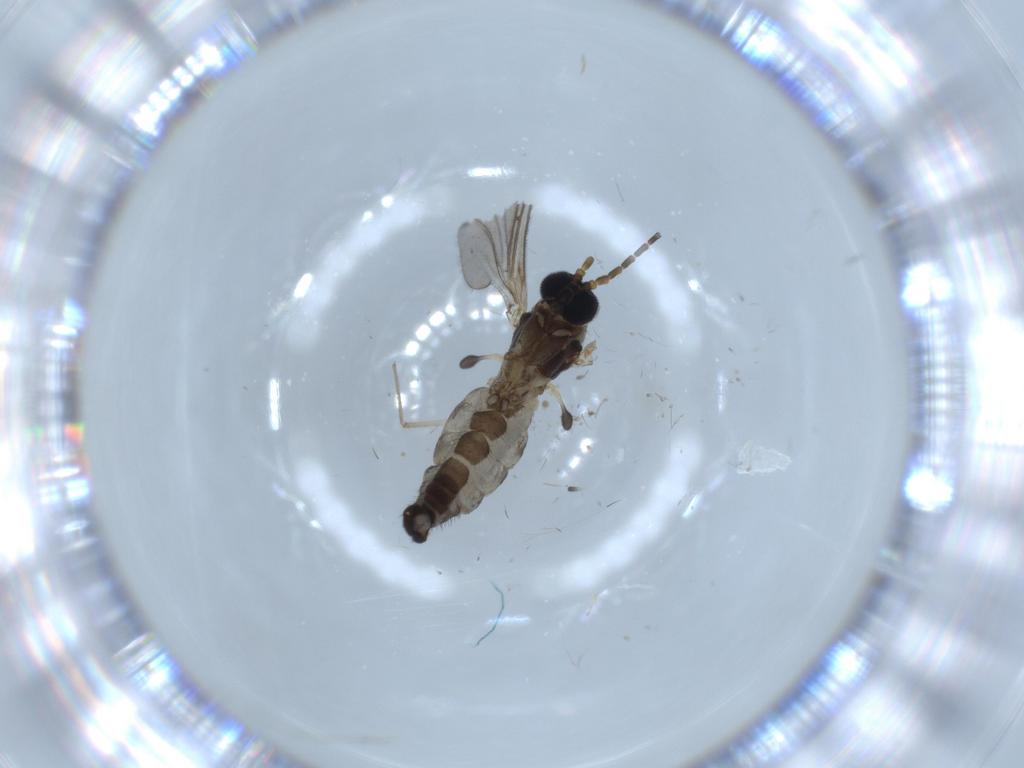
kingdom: Animalia
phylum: Arthropoda
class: Insecta
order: Diptera
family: Sciaridae
